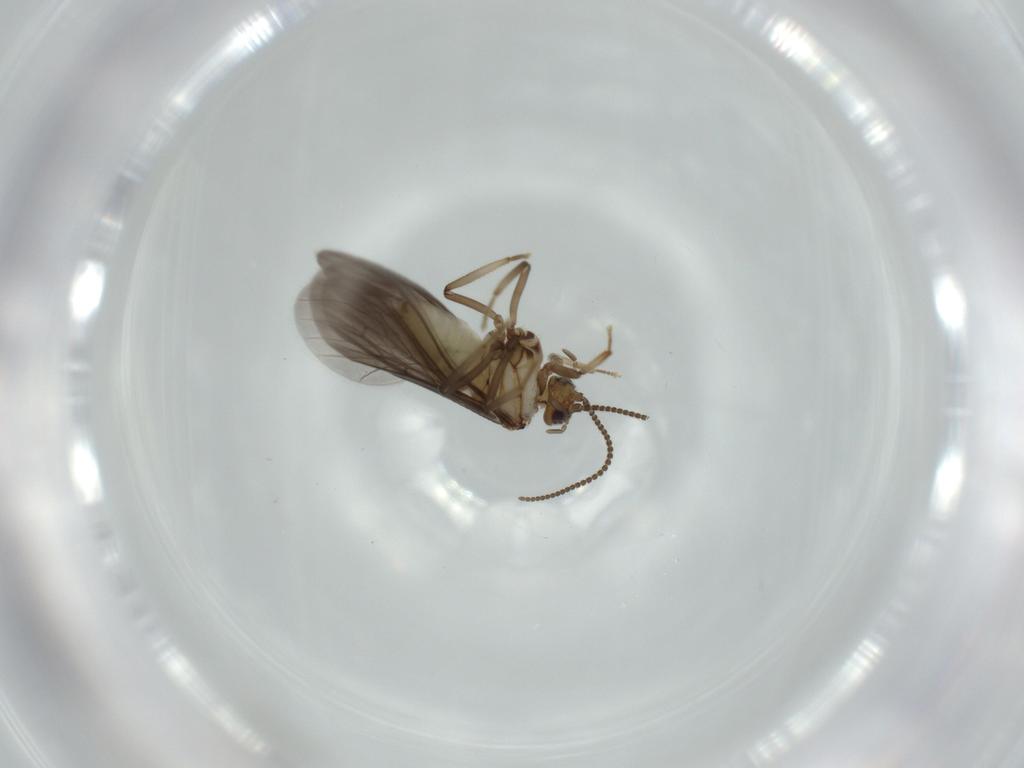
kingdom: Animalia
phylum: Arthropoda
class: Insecta
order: Neuroptera
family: Coniopterygidae
